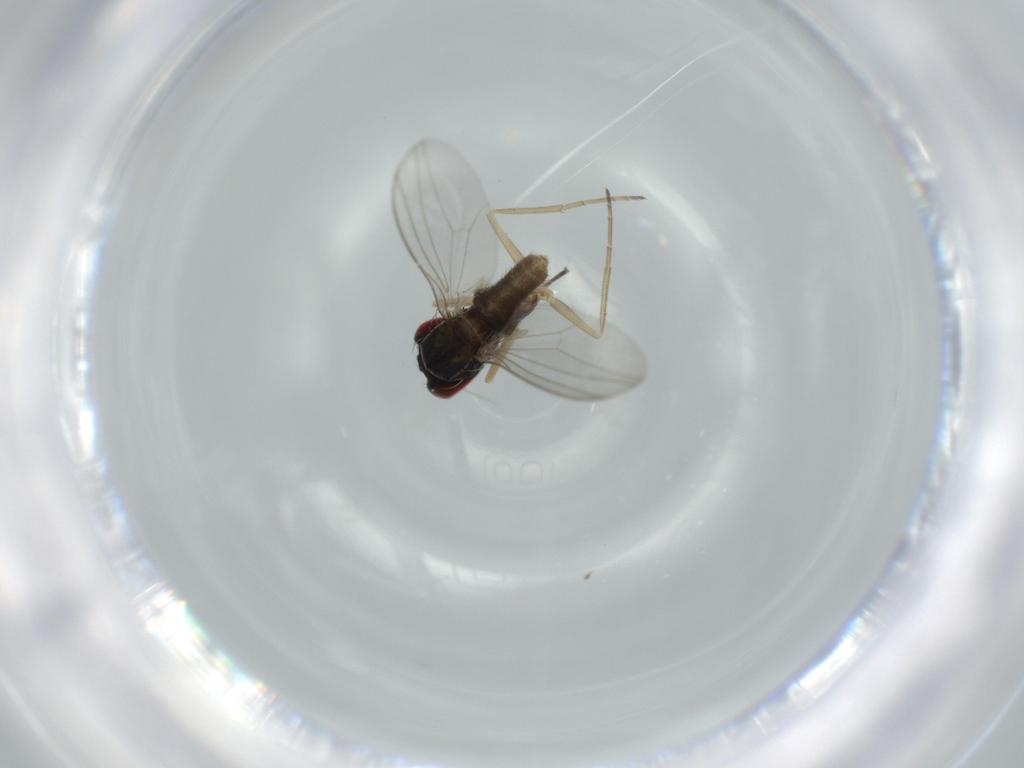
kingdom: Animalia
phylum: Arthropoda
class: Insecta
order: Diptera
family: Dolichopodidae
